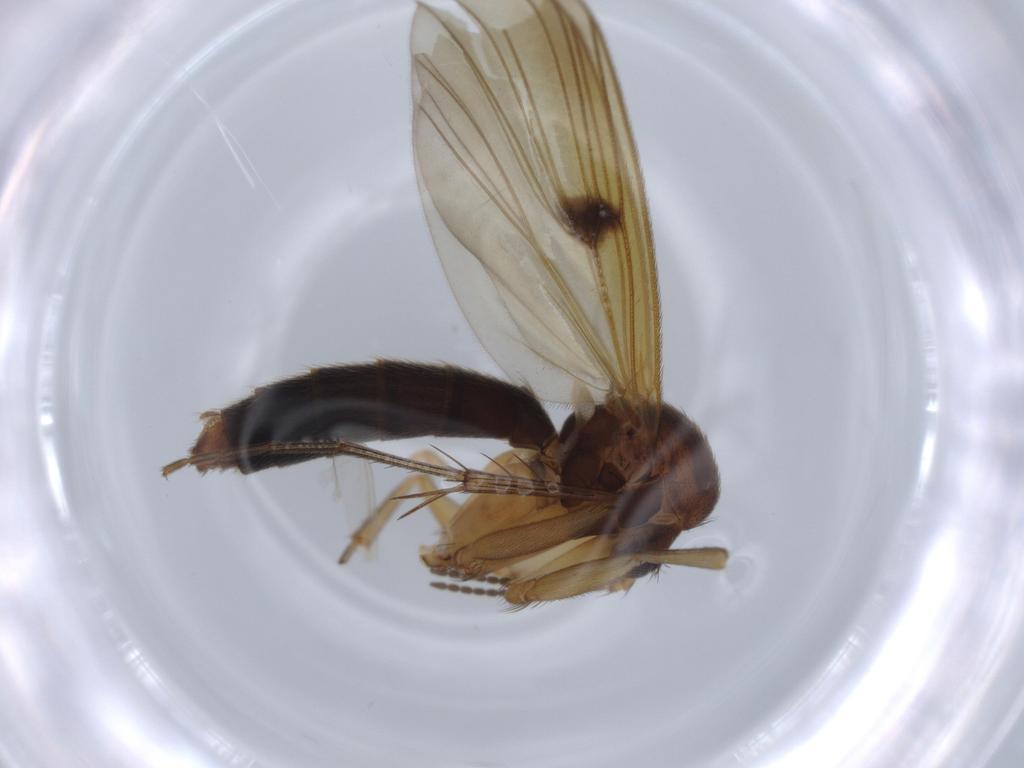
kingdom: Animalia
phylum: Arthropoda
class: Insecta
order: Diptera
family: Mycetophilidae
